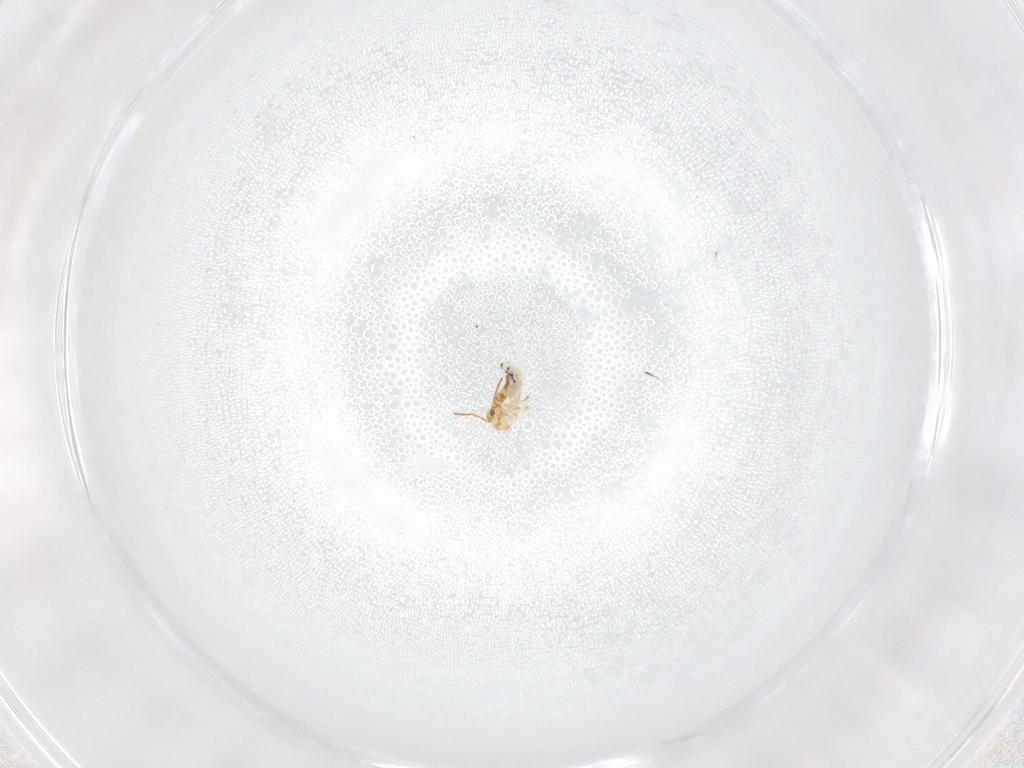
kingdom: Animalia
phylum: Arthropoda
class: Collembola
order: Symphypleona
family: Bourletiellidae
